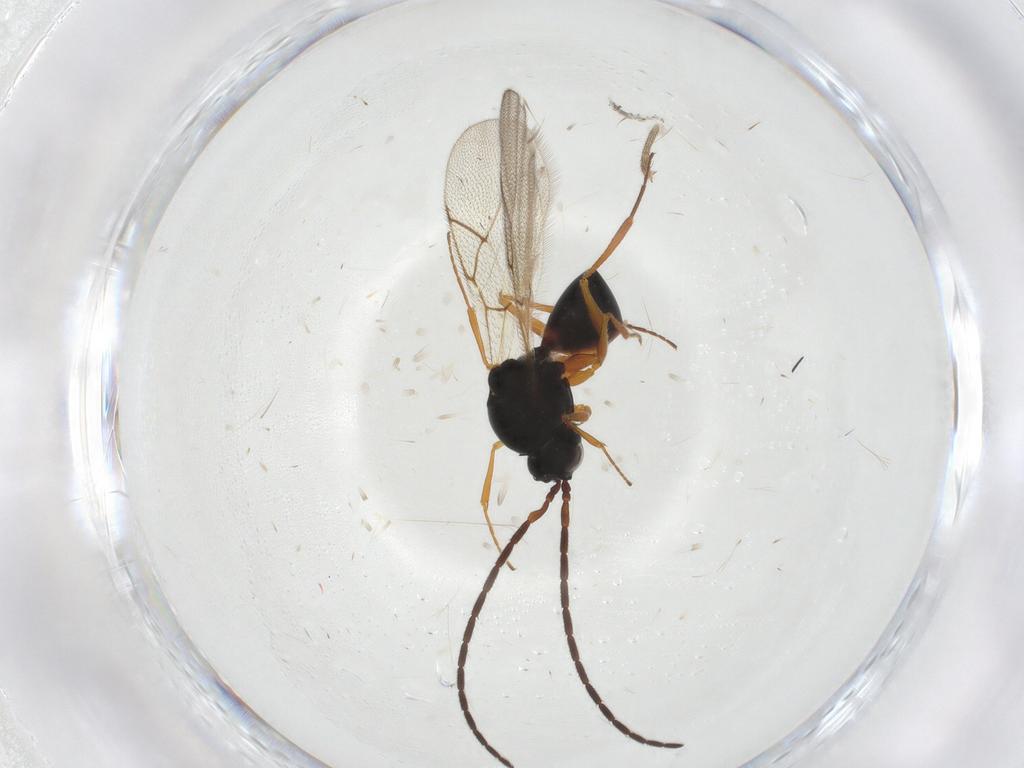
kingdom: Animalia
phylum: Arthropoda
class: Insecta
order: Hymenoptera
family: Figitidae
